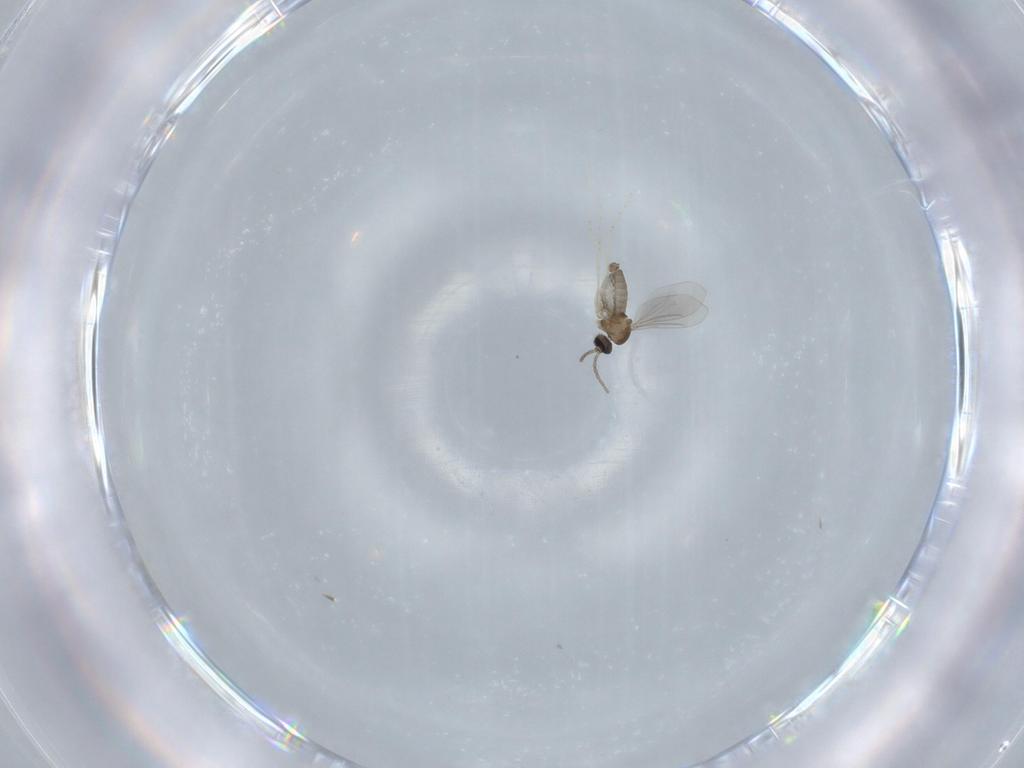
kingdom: Animalia
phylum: Arthropoda
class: Insecta
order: Diptera
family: Cecidomyiidae
